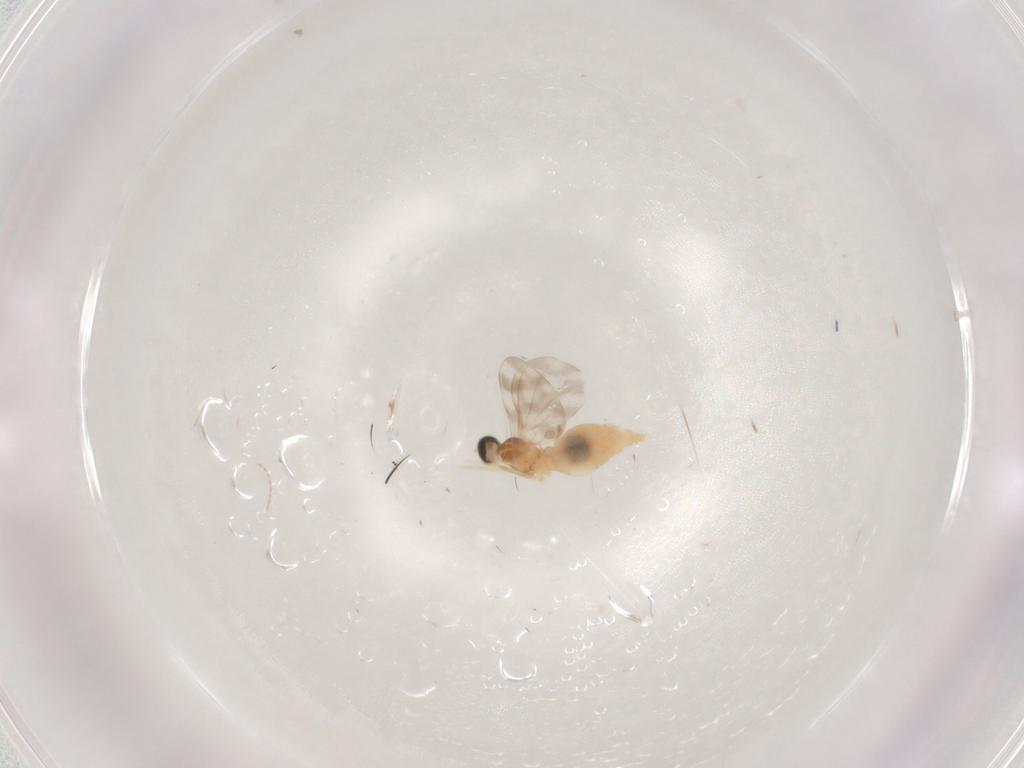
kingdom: Animalia
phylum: Arthropoda
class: Insecta
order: Diptera
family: Cecidomyiidae
